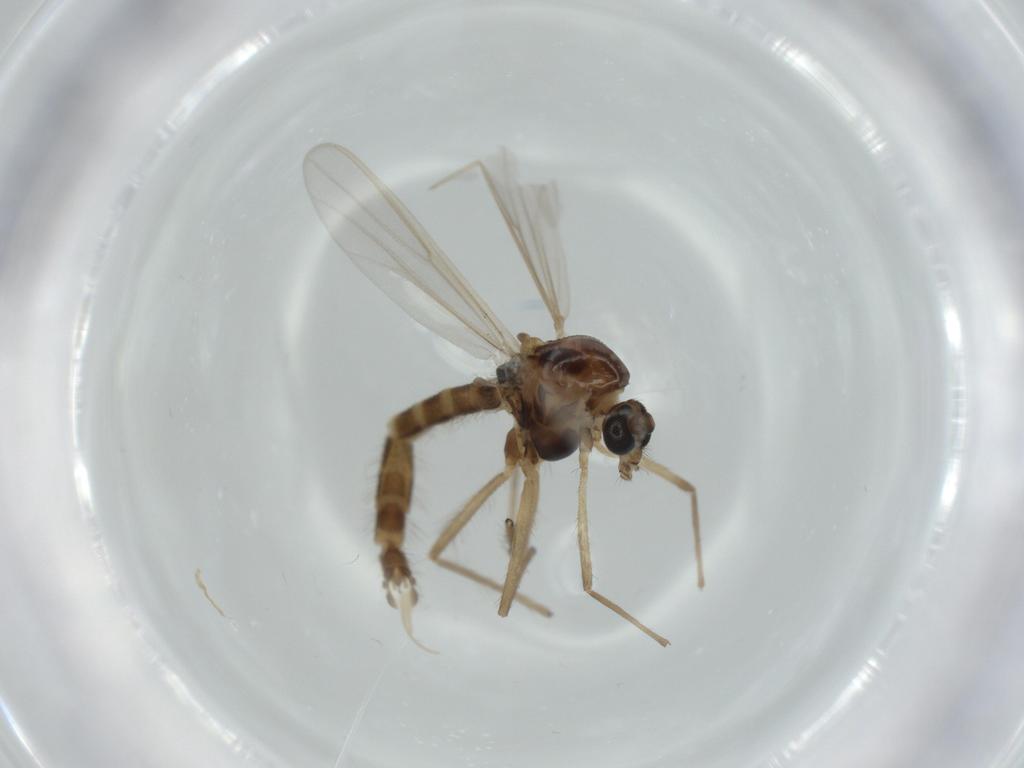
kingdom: Animalia
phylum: Arthropoda
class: Insecta
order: Diptera
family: Chironomidae
